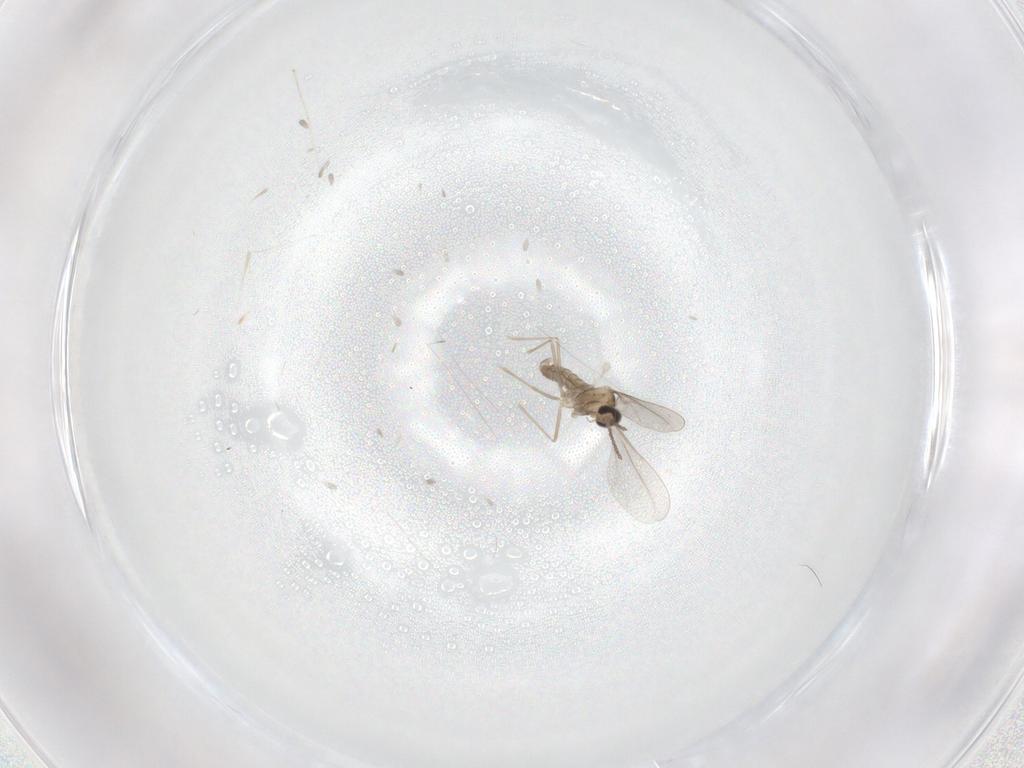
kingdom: Animalia
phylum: Arthropoda
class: Insecta
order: Diptera
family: Cecidomyiidae
